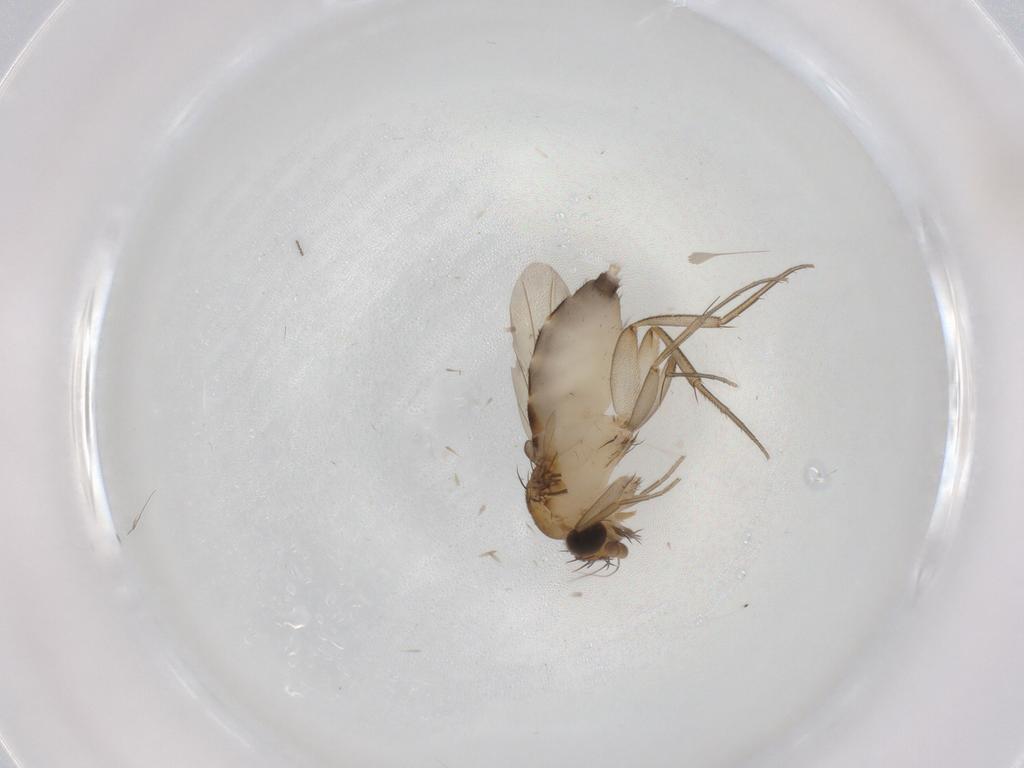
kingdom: Animalia
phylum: Arthropoda
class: Insecta
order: Diptera
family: Phoridae
